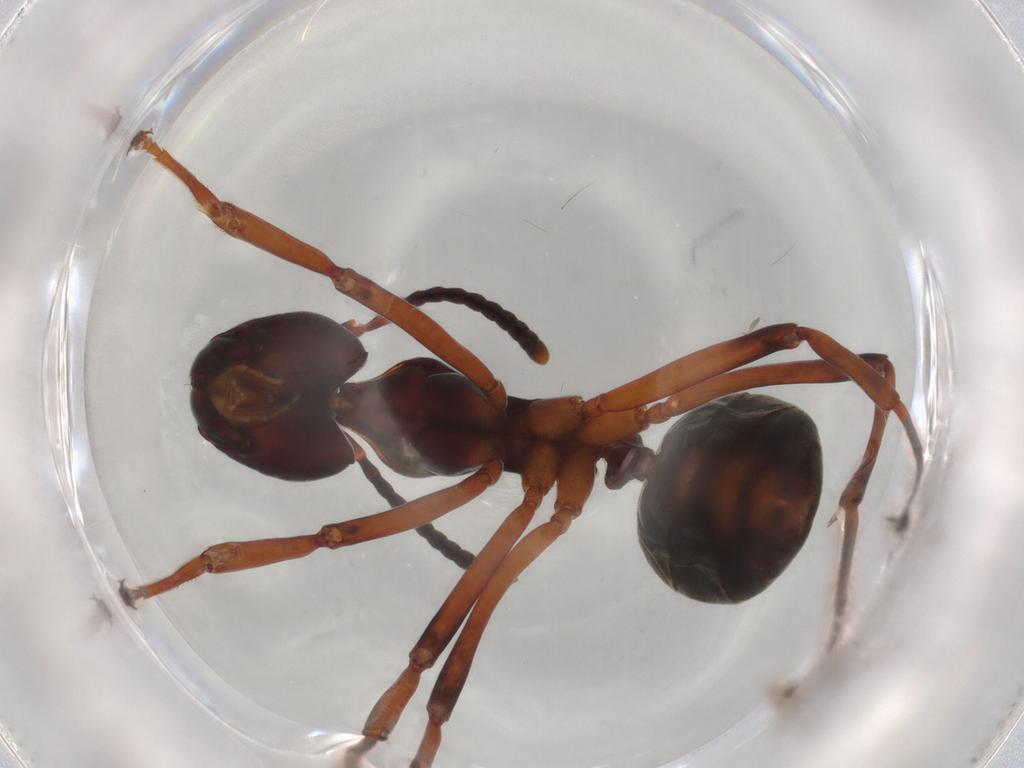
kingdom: Animalia
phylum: Arthropoda
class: Insecta
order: Hymenoptera
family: Formicidae
